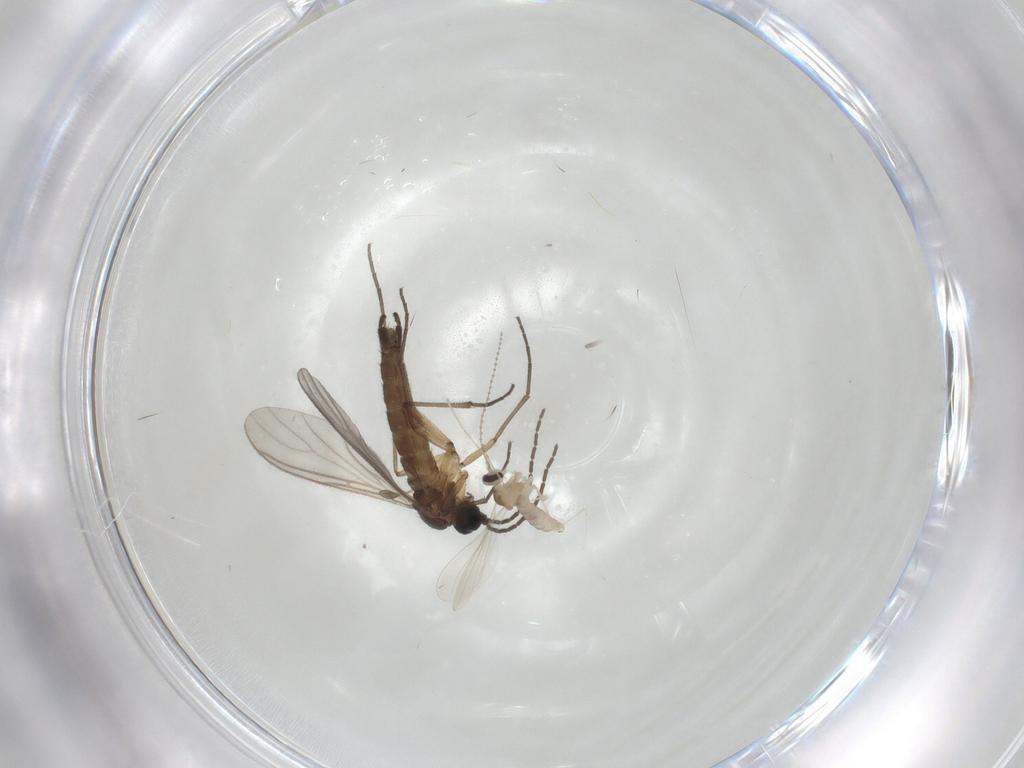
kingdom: Animalia
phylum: Arthropoda
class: Insecta
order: Diptera
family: Sciaridae
